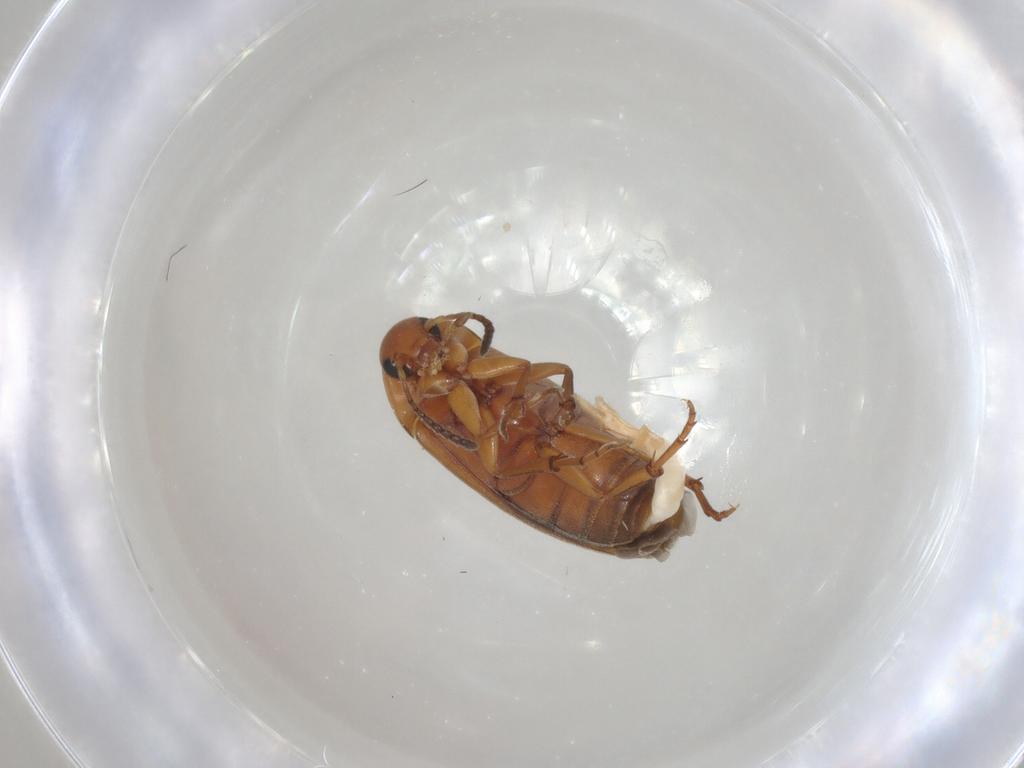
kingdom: Animalia
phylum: Arthropoda
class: Insecta
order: Coleoptera
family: Scraptiidae
